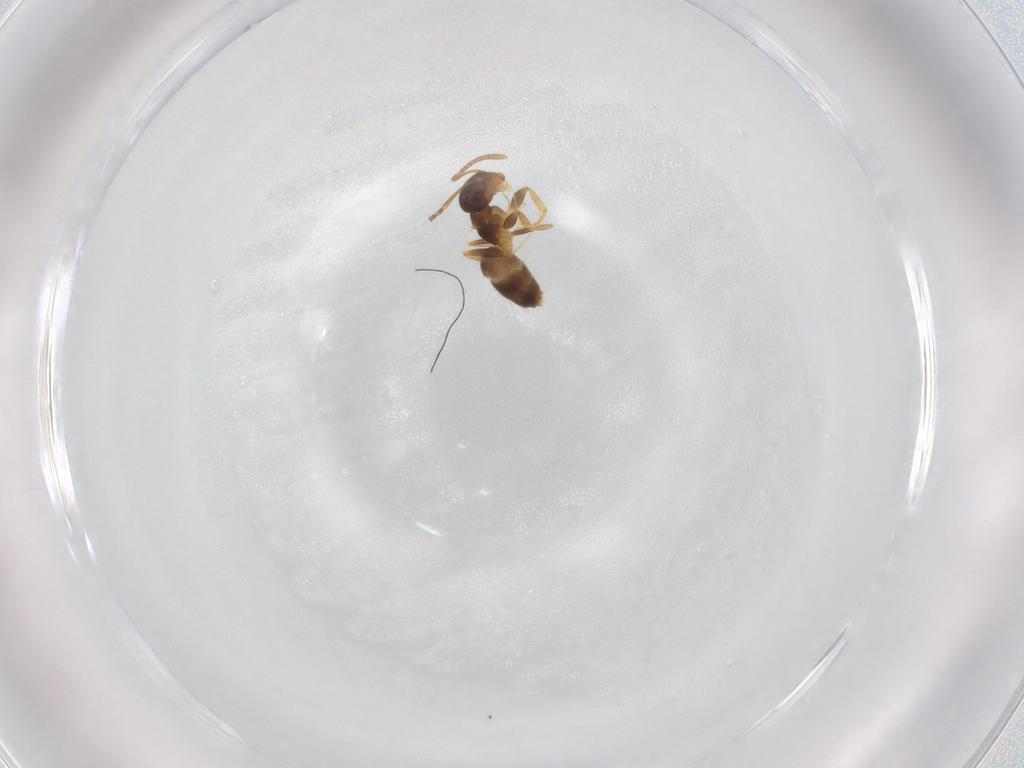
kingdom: Animalia
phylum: Arthropoda
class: Insecta
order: Hymenoptera
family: Formicidae
